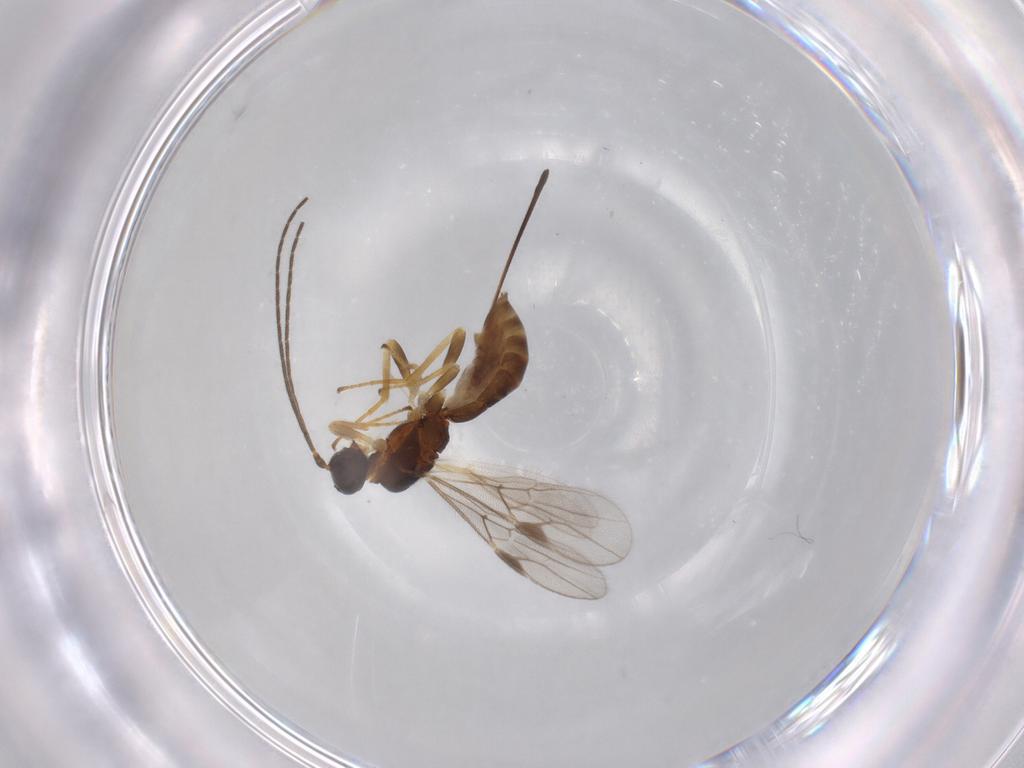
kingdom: Animalia
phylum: Arthropoda
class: Insecta
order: Hymenoptera
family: Braconidae
